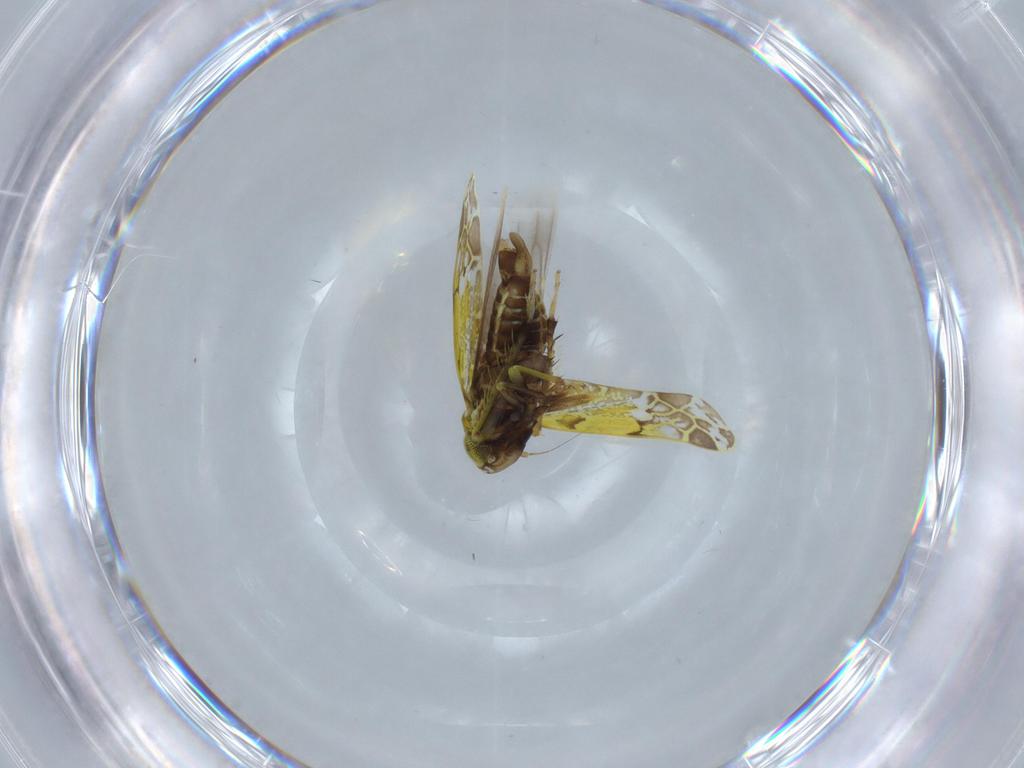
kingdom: Animalia
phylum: Arthropoda
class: Insecta
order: Hemiptera
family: Cicadellidae
